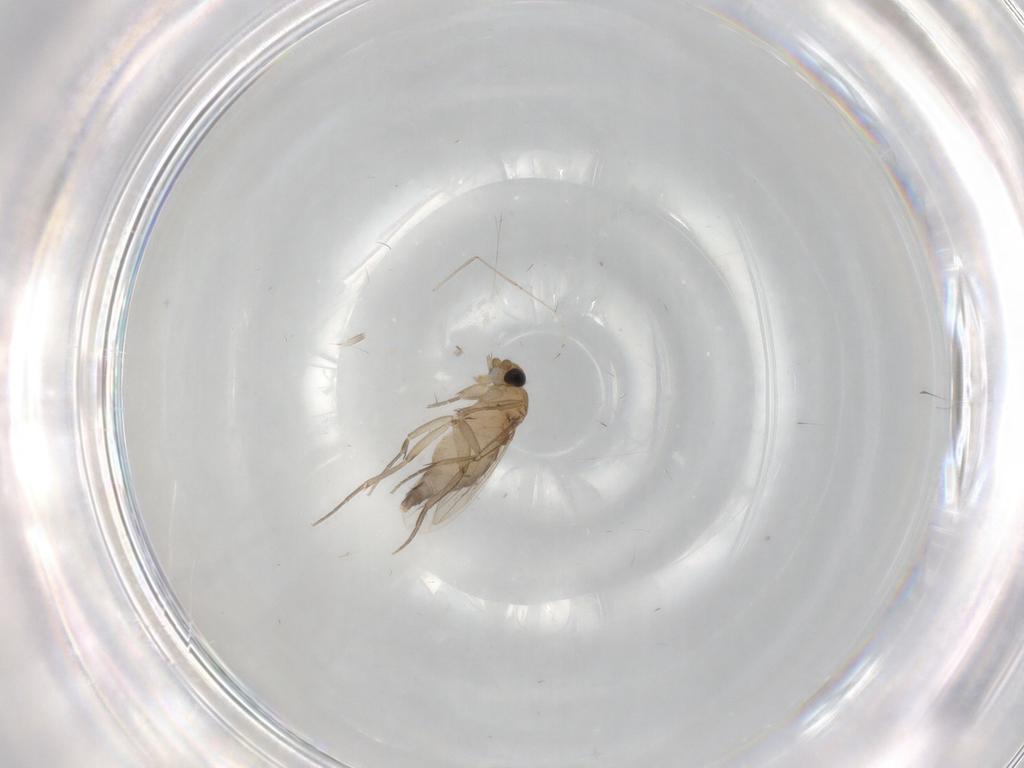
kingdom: Animalia
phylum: Arthropoda
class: Insecta
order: Diptera
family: Phoridae
